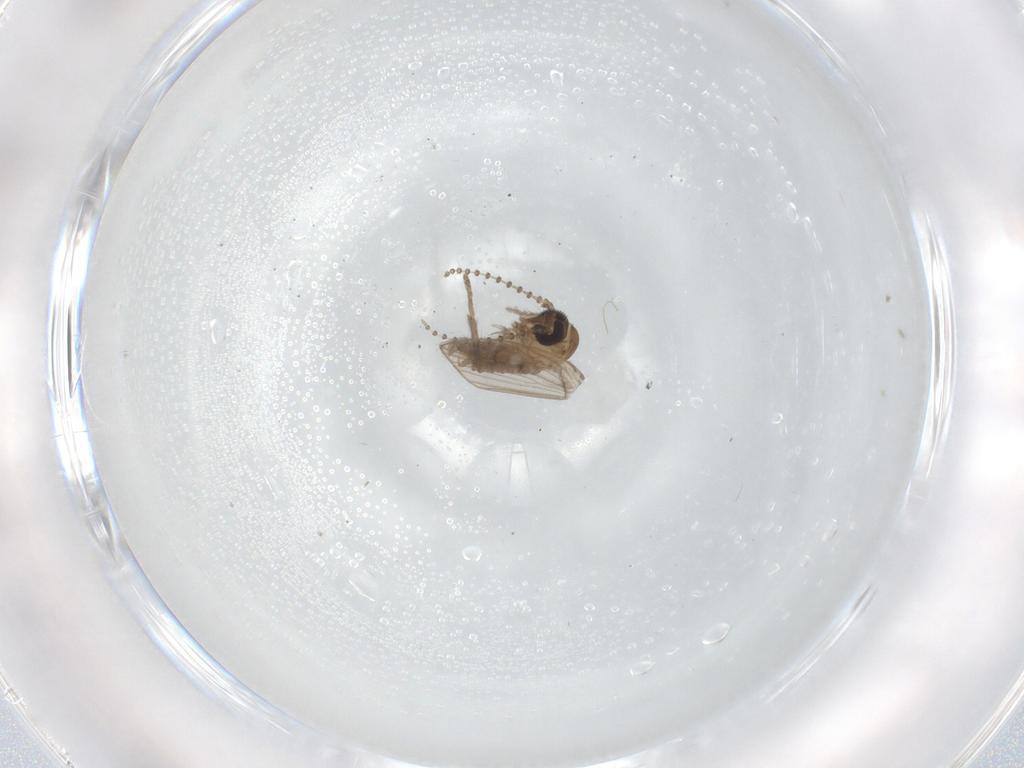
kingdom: Animalia
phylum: Arthropoda
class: Insecta
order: Diptera
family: Psychodidae
